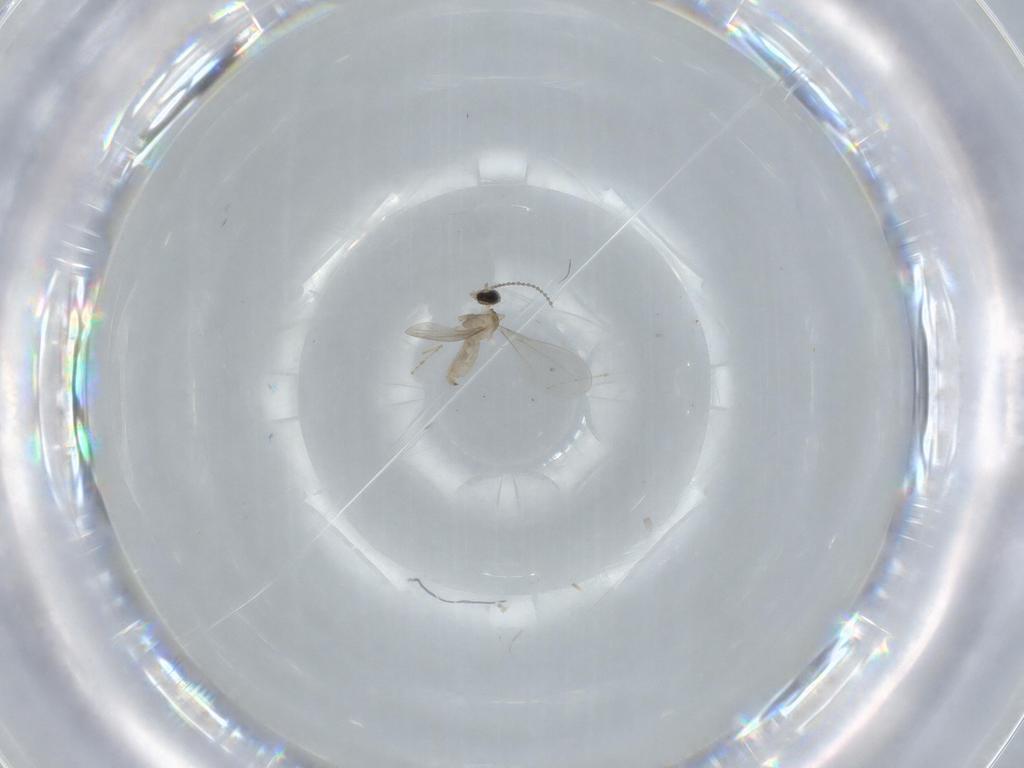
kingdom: Animalia
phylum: Arthropoda
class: Insecta
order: Diptera
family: Cecidomyiidae
